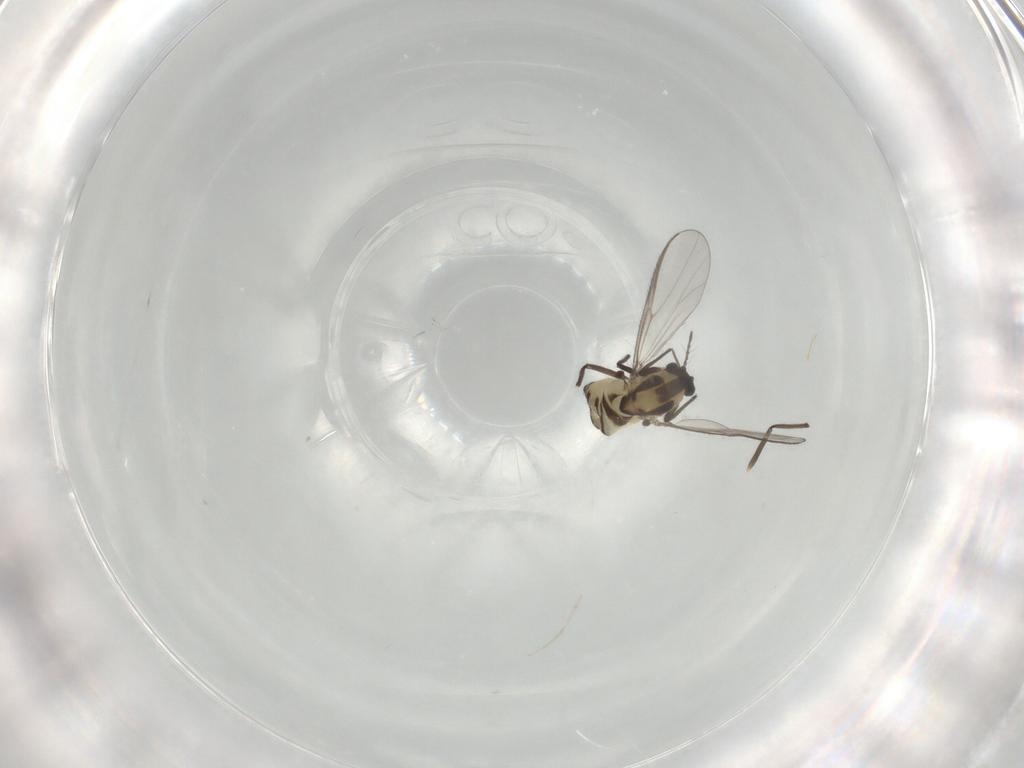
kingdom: Animalia
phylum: Arthropoda
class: Insecta
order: Diptera
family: Chironomidae
